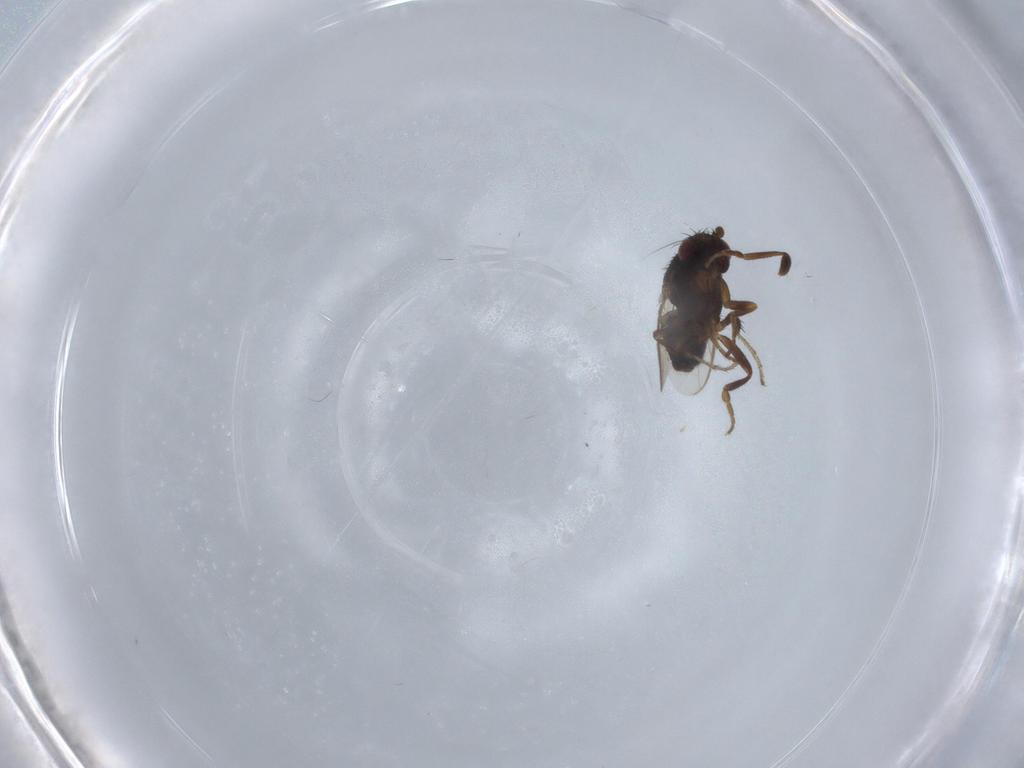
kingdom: Animalia
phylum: Arthropoda
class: Insecta
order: Diptera
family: Sphaeroceridae
